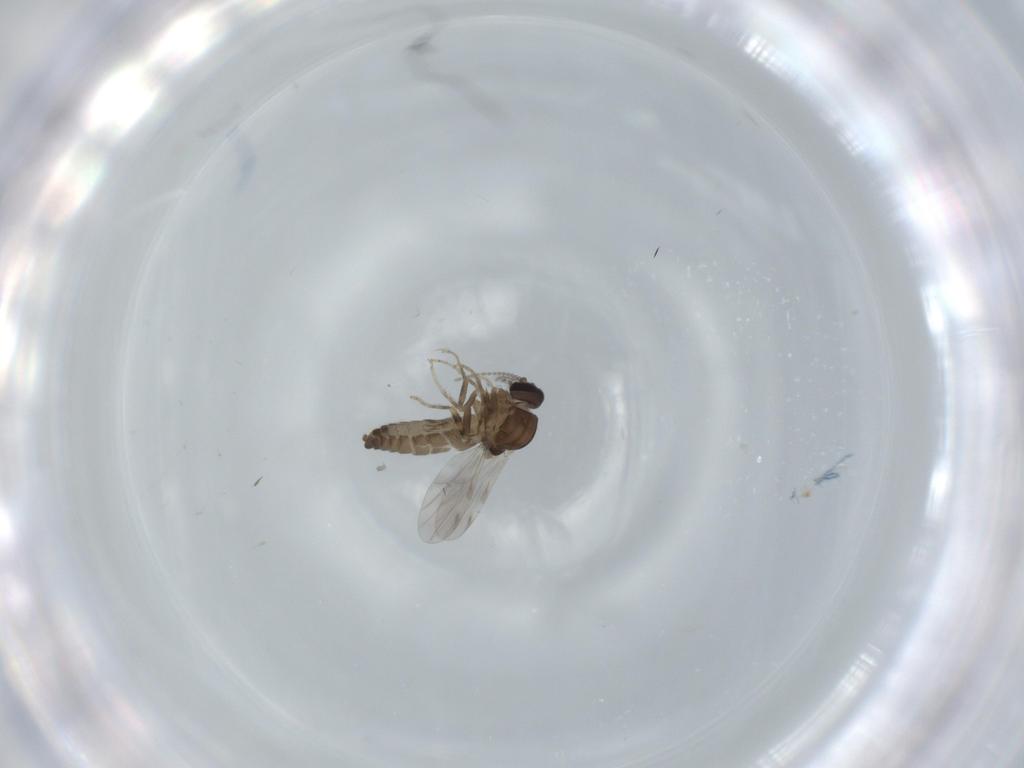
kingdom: Animalia
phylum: Arthropoda
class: Insecta
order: Diptera
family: Ceratopogonidae
